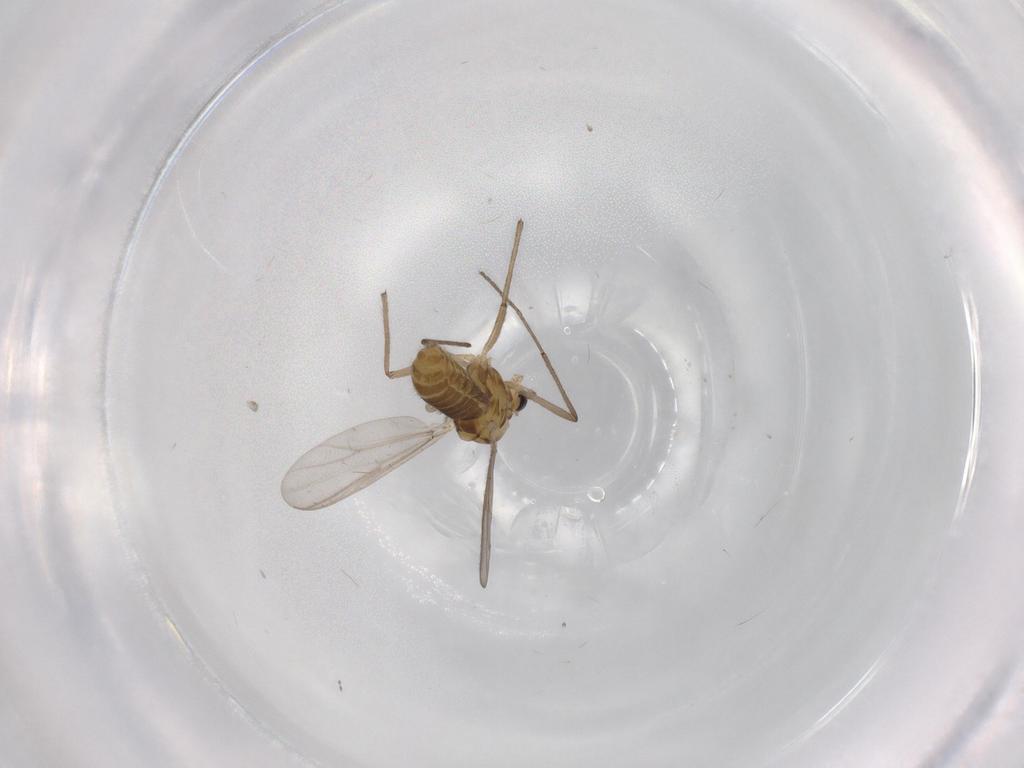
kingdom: Animalia
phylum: Arthropoda
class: Insecta
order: Diptera
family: Chironomidae
